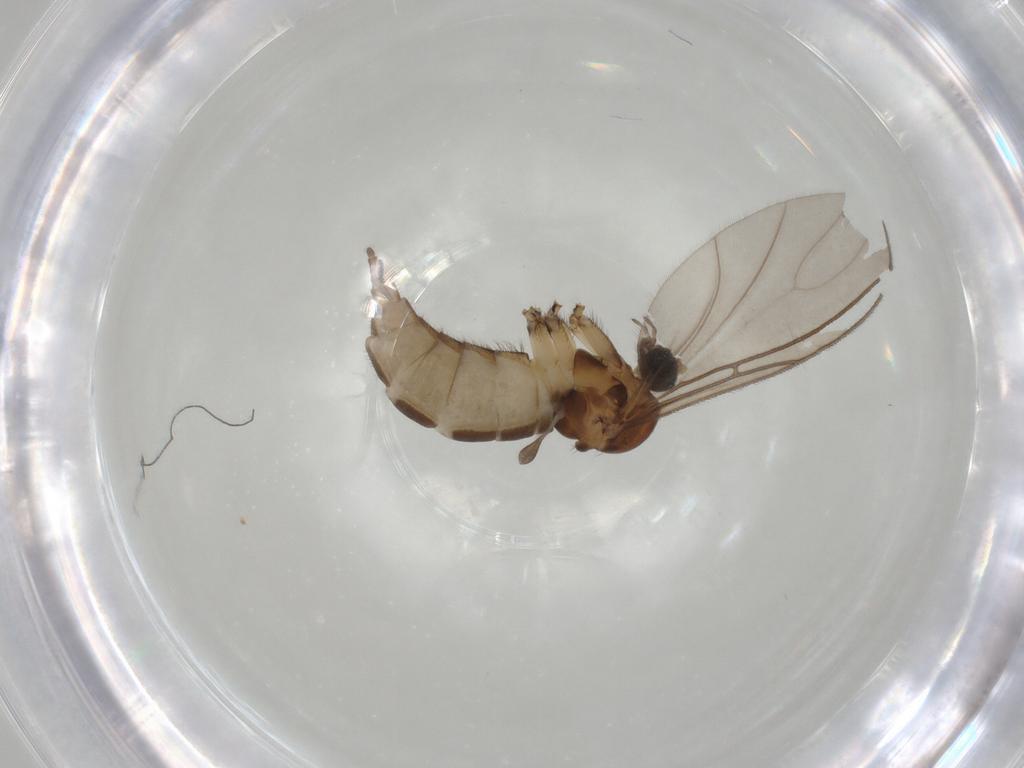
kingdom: Animalia
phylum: Arthropoda
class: Insecta
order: Diptera
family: Sciaridae
